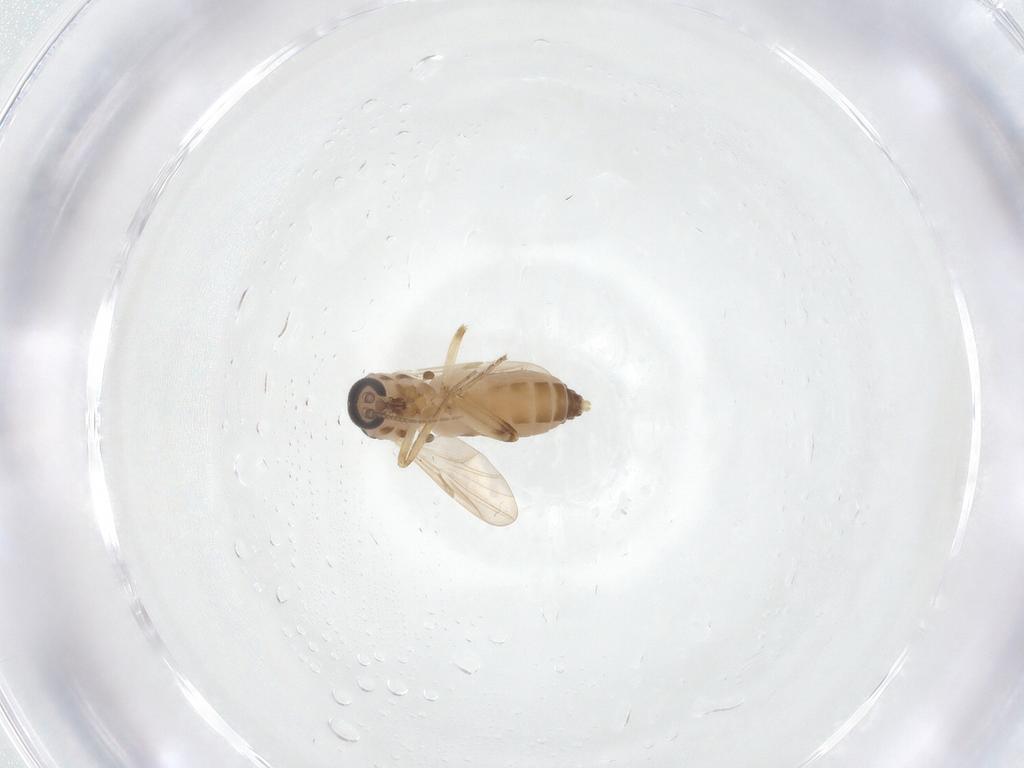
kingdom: Animalia
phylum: Arthropoda
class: Insecta
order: Diptera
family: Ceratopogonidae
